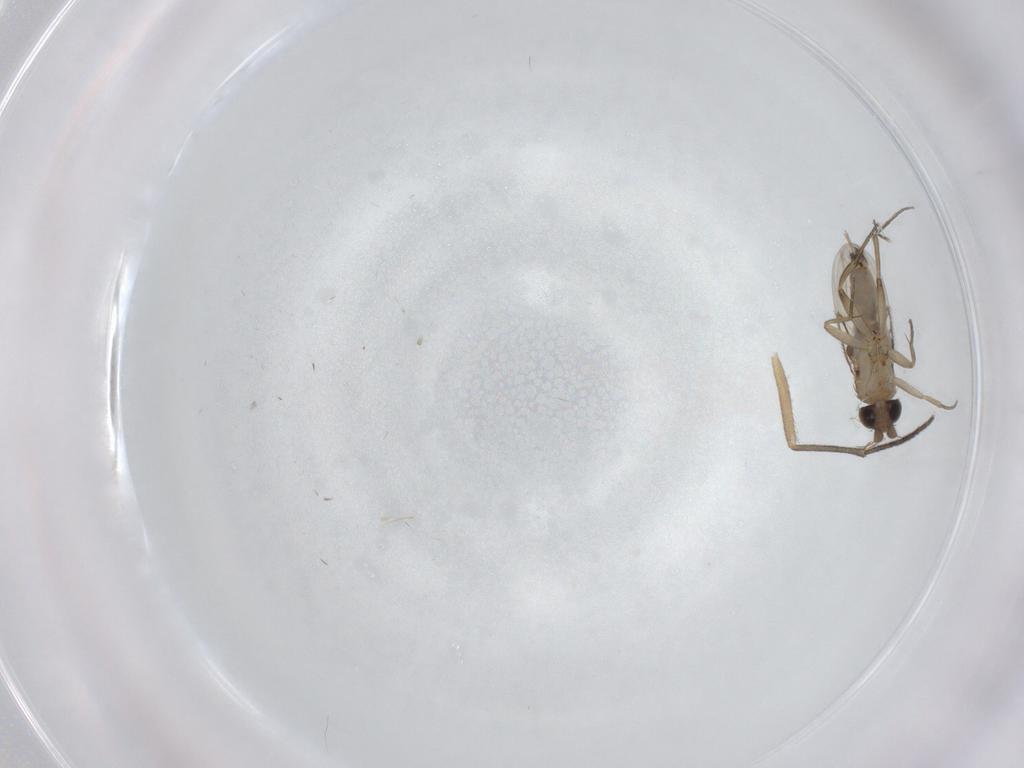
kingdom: Animalia
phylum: Arthropoda
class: Insecta
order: Diptera
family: Phoridae
